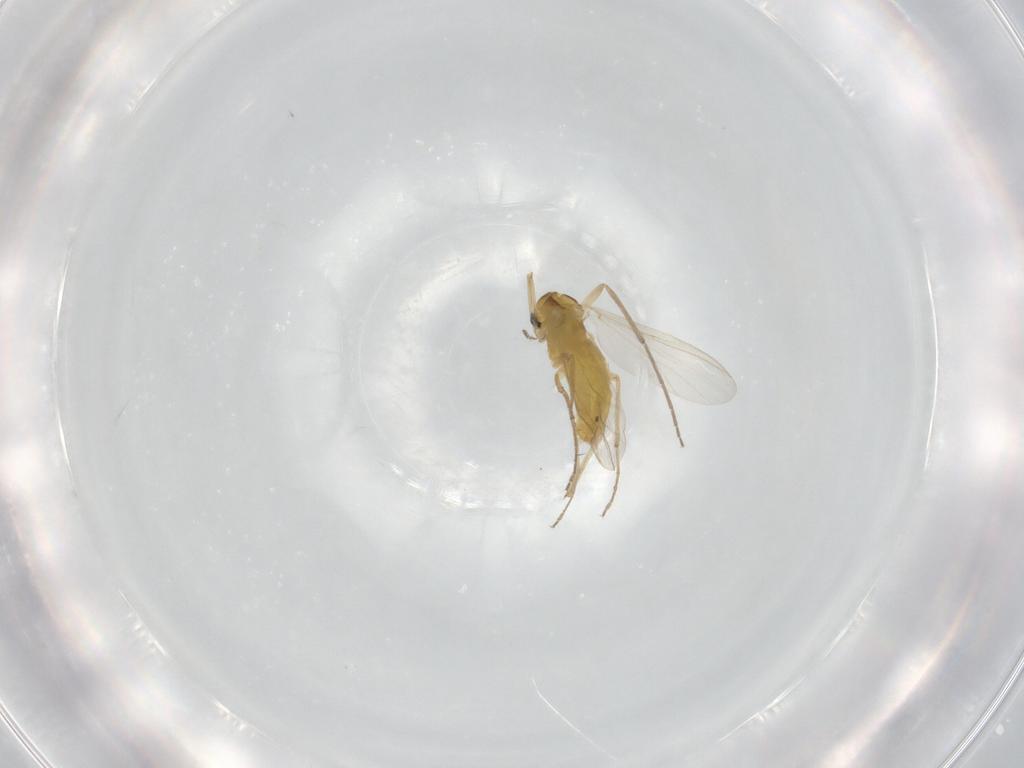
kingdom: Animalia
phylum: Arthropoda
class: Insecta
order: Diptera
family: Chironomidae
